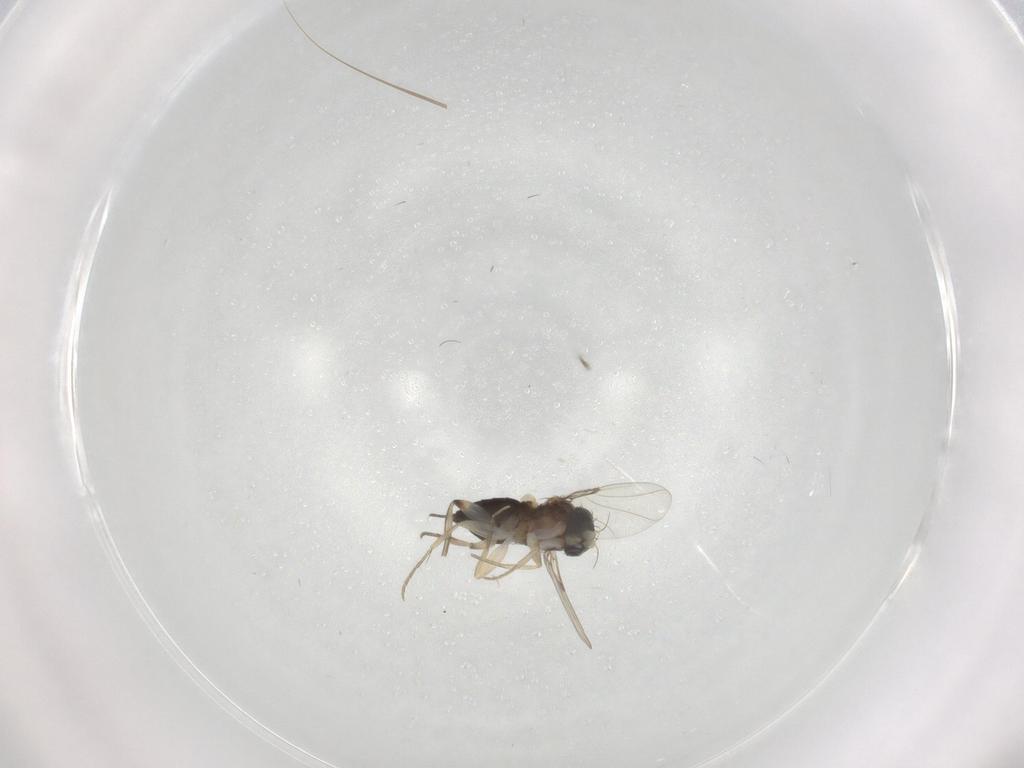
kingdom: Animalia
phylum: Arthropoda
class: Insecta
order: Diptera
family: Phoridae
